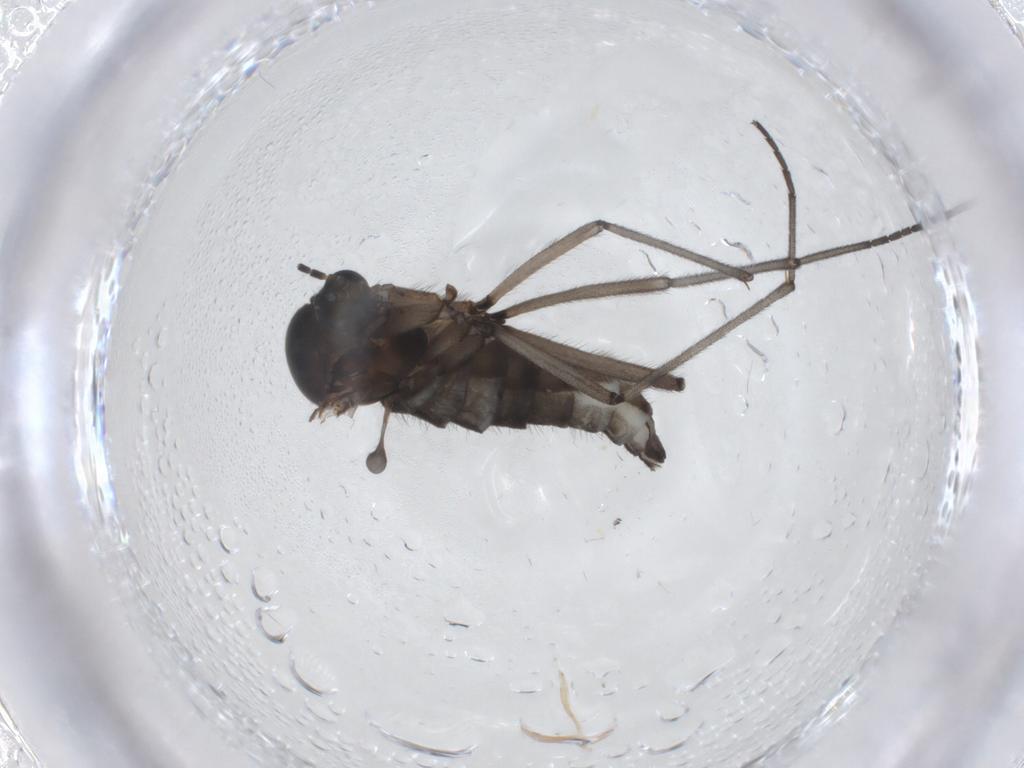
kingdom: Animalia
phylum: Arthropoda
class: Insecta
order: Diptera
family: Sciaridae
